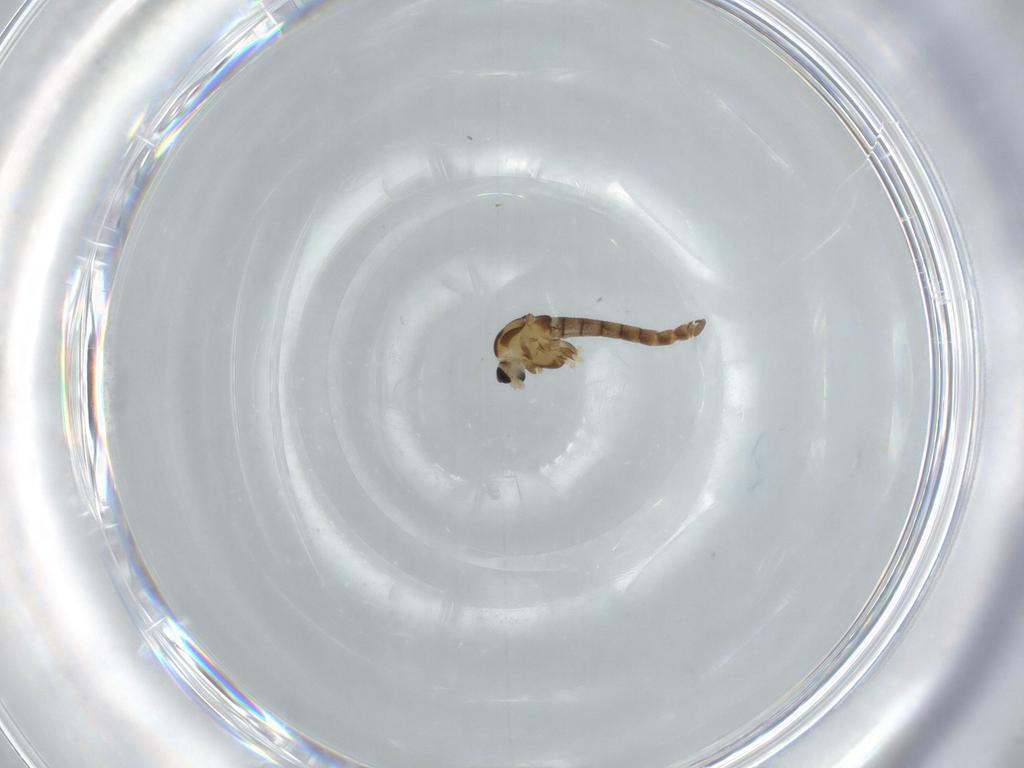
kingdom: Animalia
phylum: Arthropoda
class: Insecta
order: Diptera
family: Chironomidae
